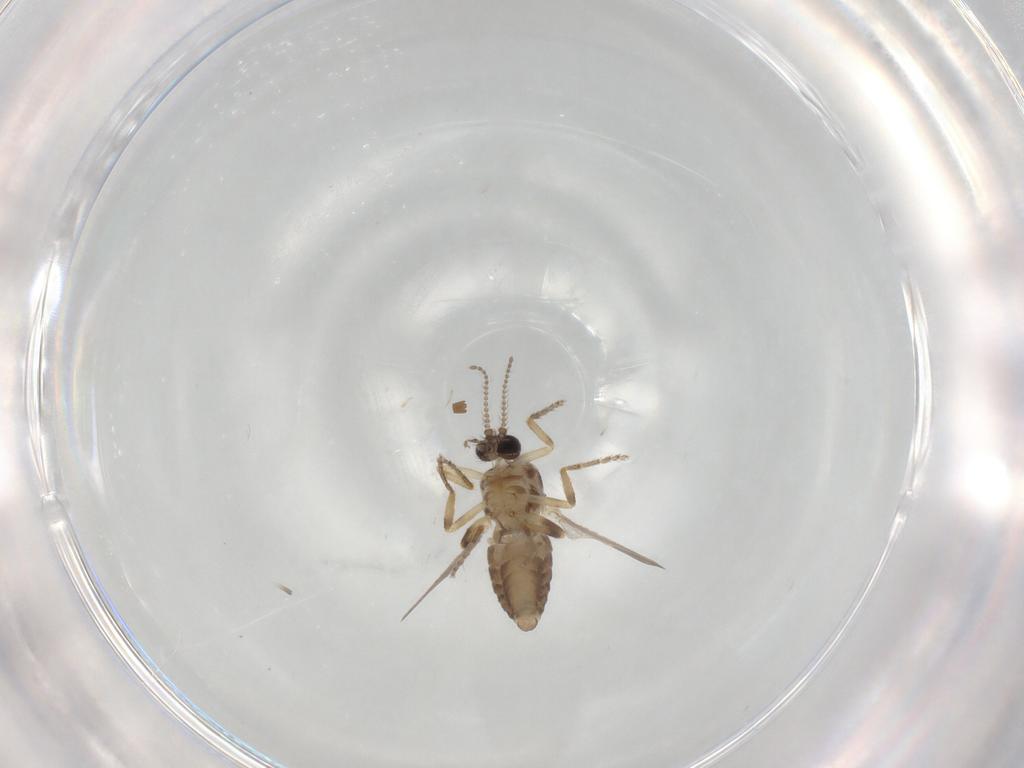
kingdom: Animalia
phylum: Arthropoda
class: Insecta
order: Diptera
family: Ceratopogonidae
